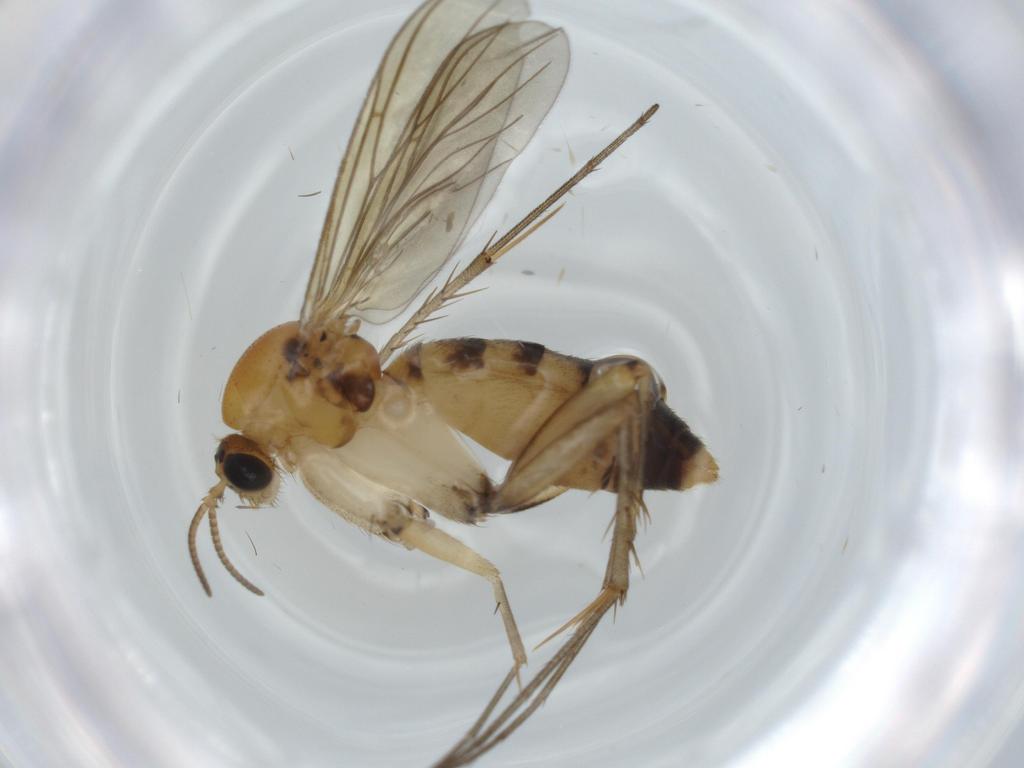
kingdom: Animalia
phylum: Arthropoda
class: Insecta
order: Diptera
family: Mycetophilidae
